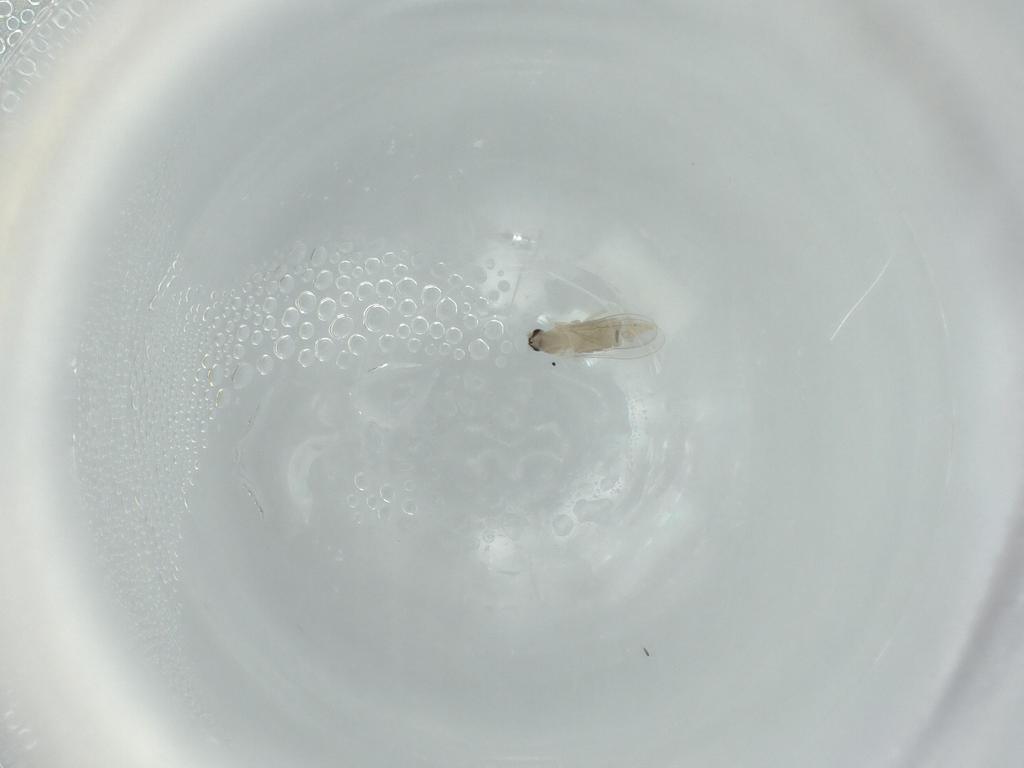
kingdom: Animalia
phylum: Arthropoda
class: Insecta
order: Diptera
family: Cecidomyiidae
